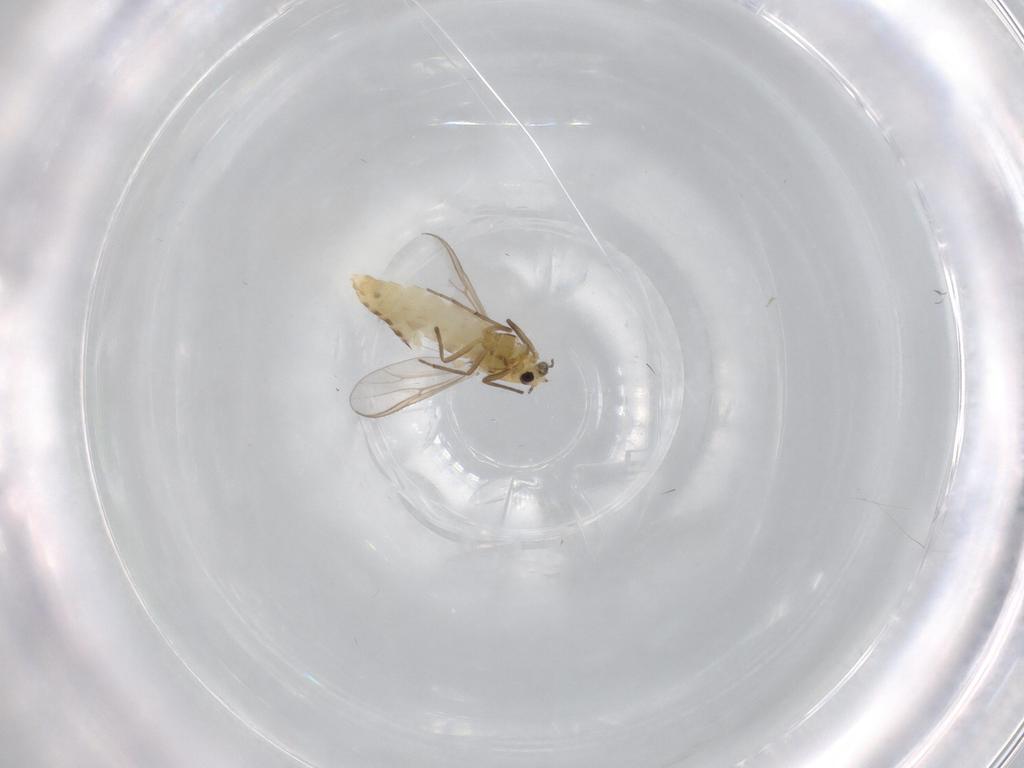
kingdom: Animalia
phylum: Arthropoda
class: Insecta
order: Diptera
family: Chironomidae
